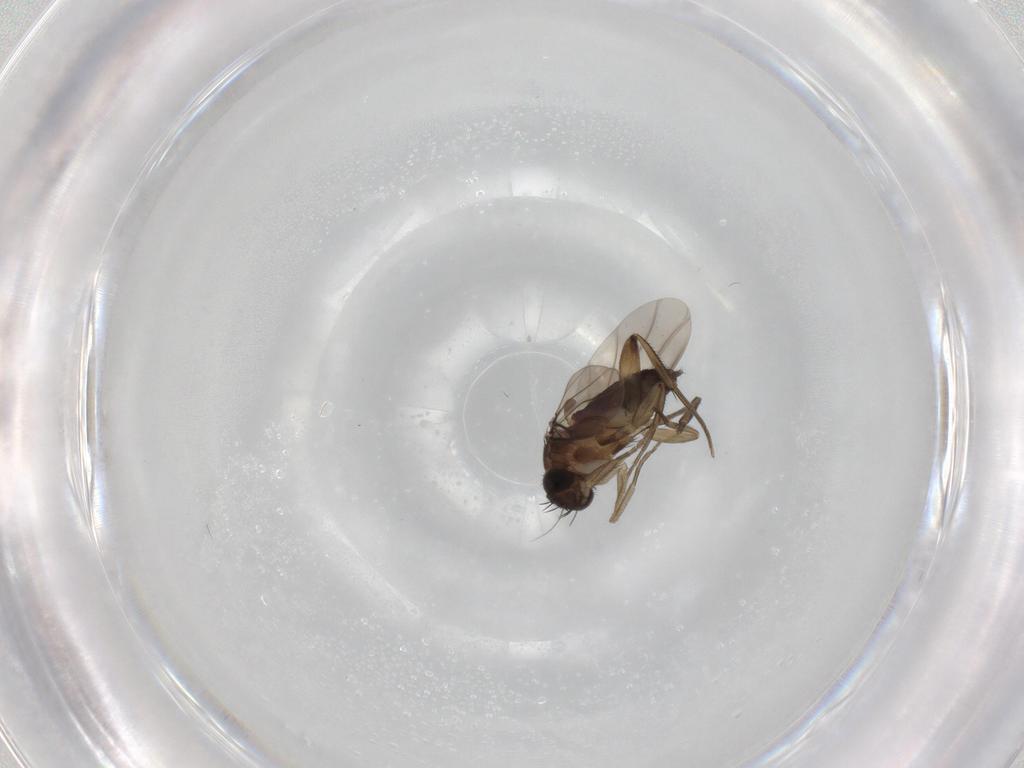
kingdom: Animalia
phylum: Arthropoda
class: Insecta
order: Diptera
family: Phoridae
